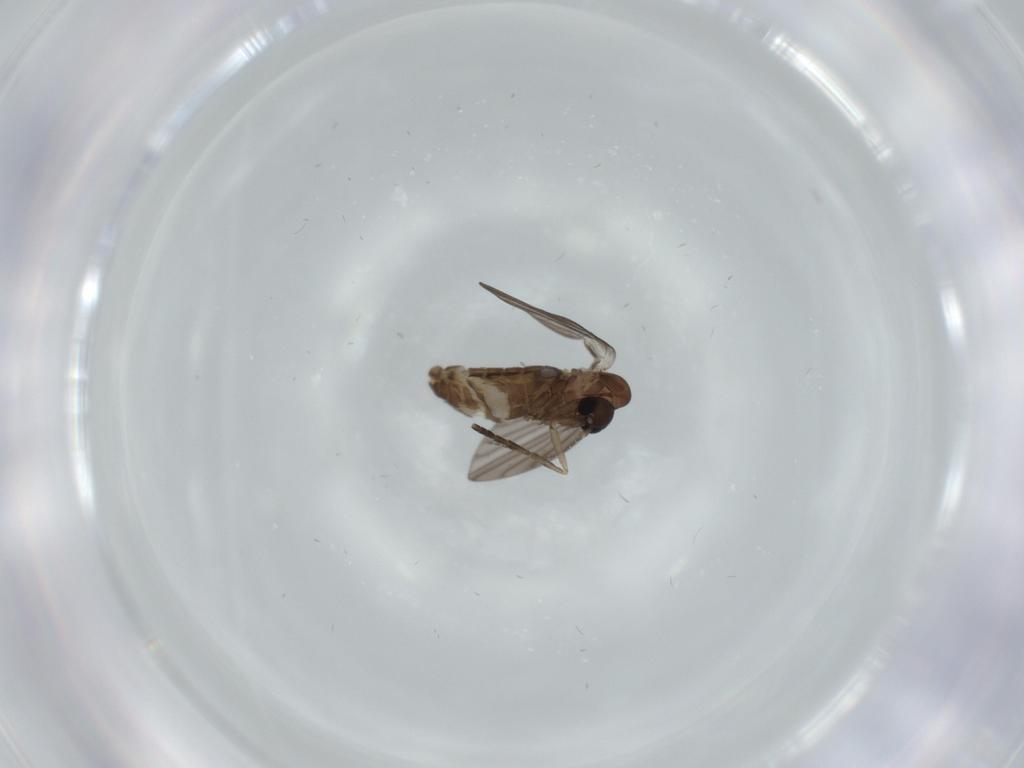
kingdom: Animalia
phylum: Arthropoda
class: Insecta
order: Diptera
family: Psychodidae
